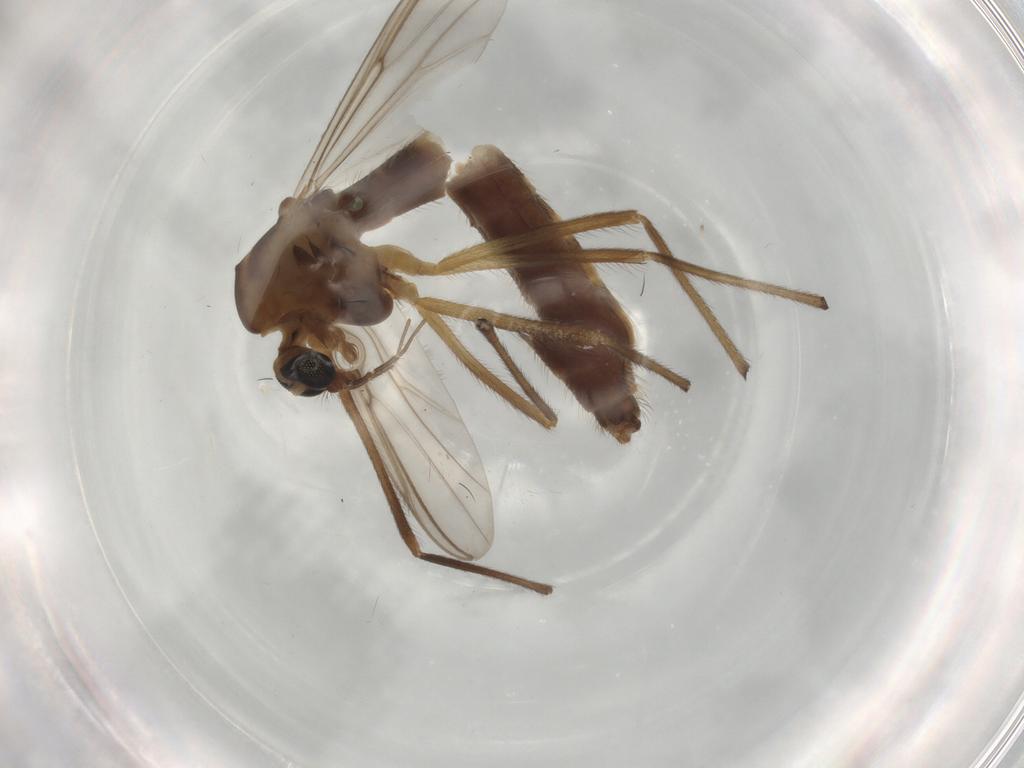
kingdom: Animalia
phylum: Arthropoda
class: Insecta
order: Diptera
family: Chironomidae
